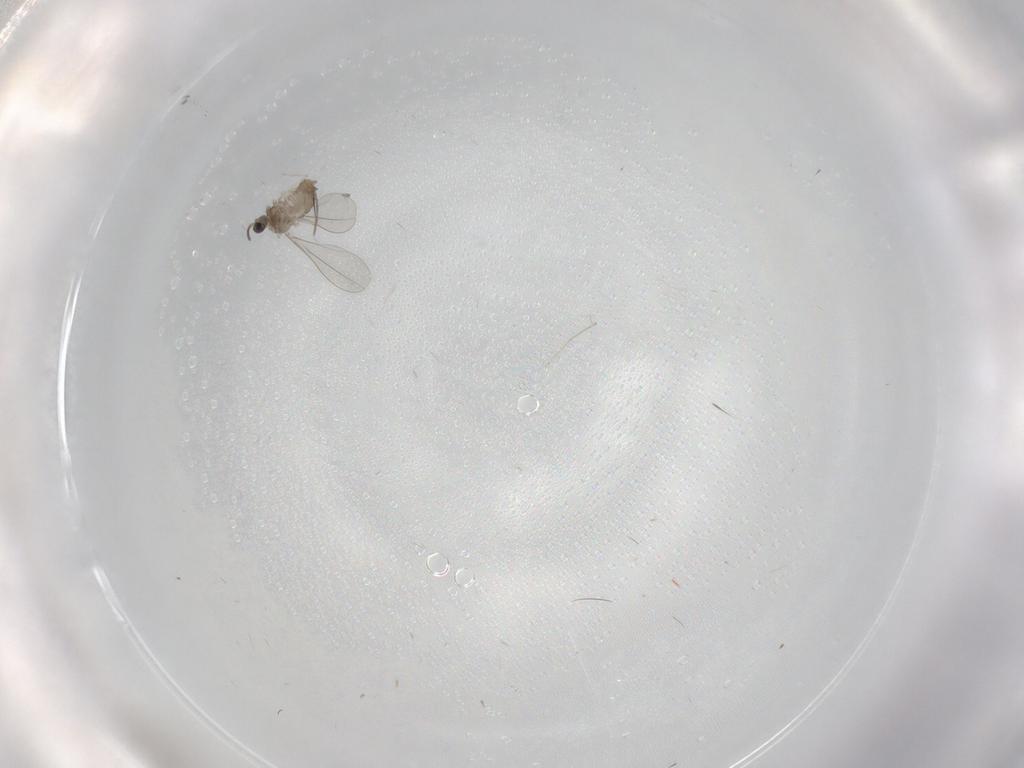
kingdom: Animalia
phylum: Arthropoda
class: Insecta
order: Diptera
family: Cecidomyiidae
